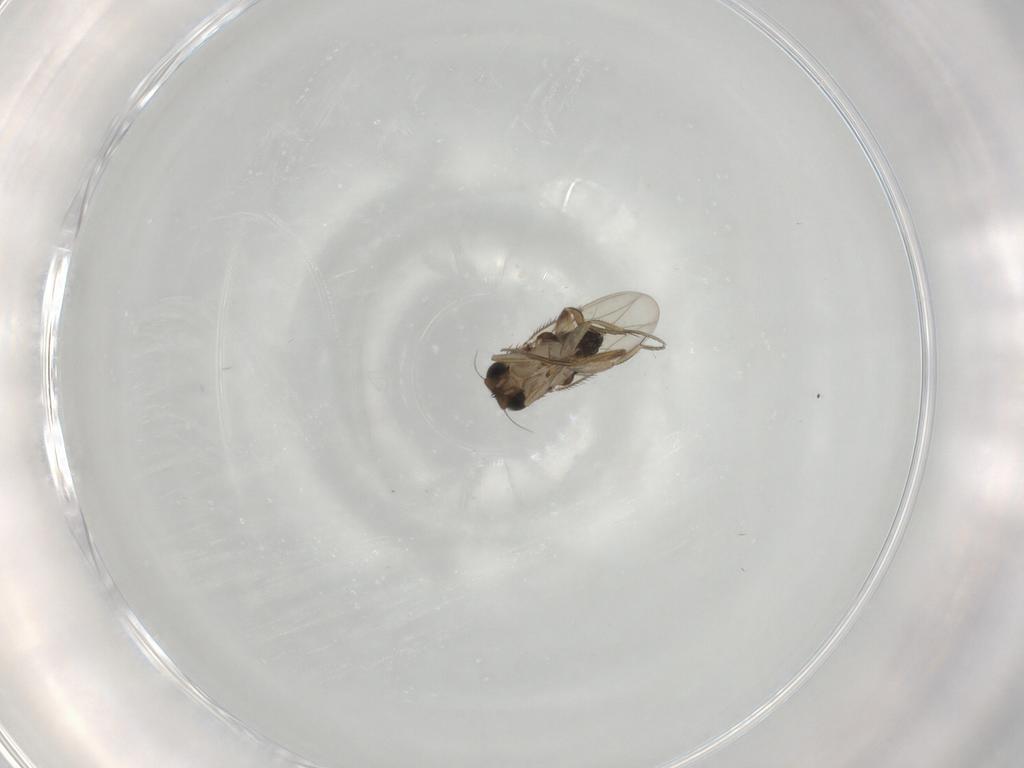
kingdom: Animalia
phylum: Arthropoda
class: Insecta
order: Diptera
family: Phoridae
